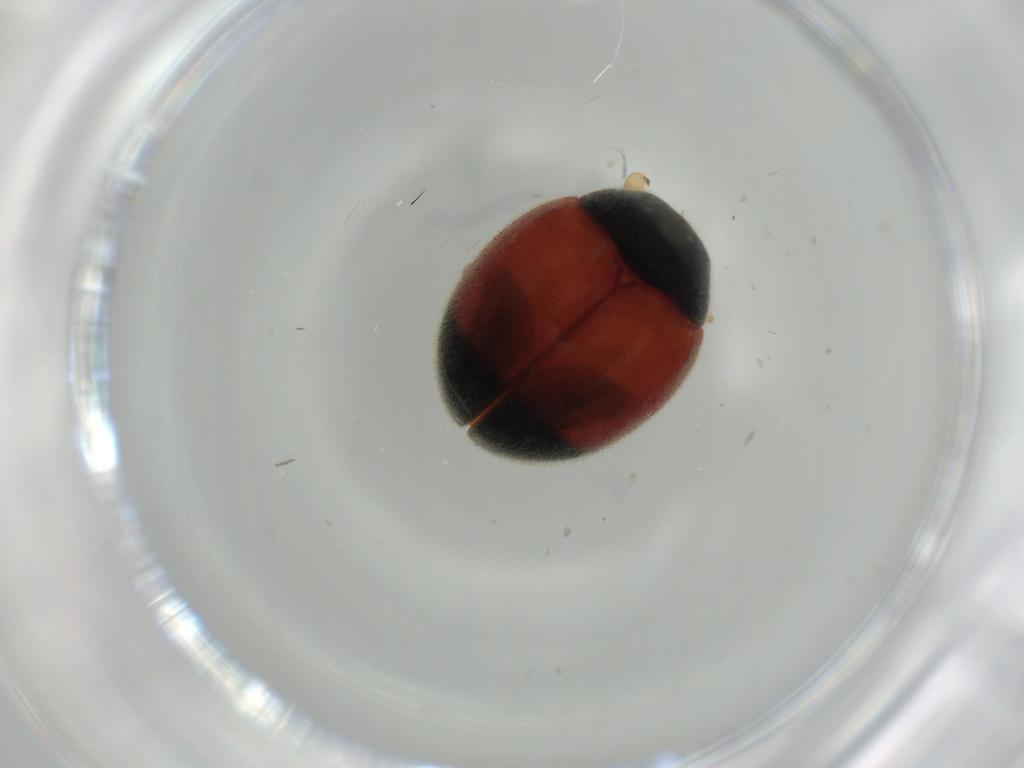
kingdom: Animalia
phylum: Arthropoda
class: Insecta
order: Coleoptera
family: Coccinellidae
